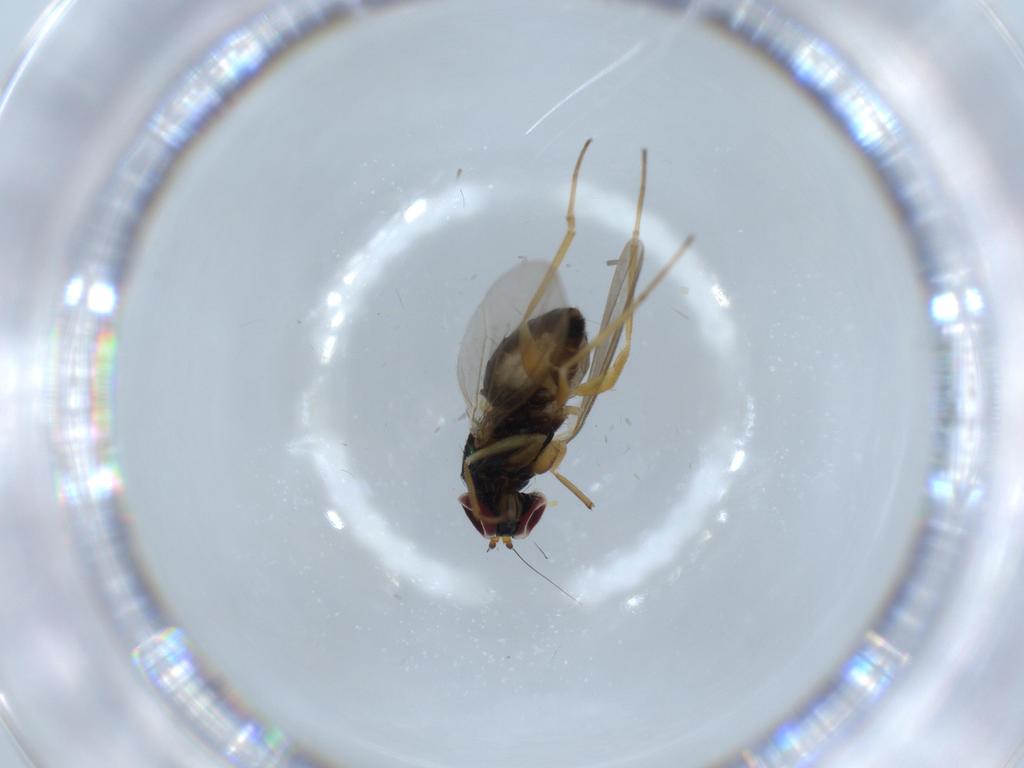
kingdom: Animalia
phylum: Arthropoda
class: Insecta
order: Diptera
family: Dolichopodidae
